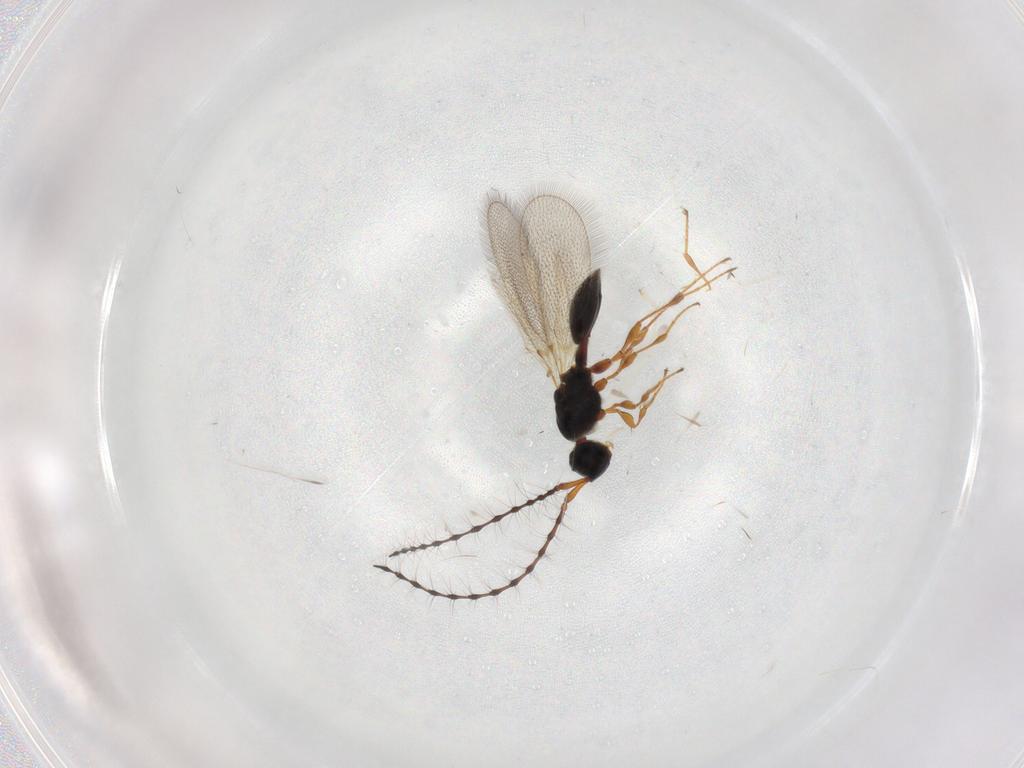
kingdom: Animalia
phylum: Arthropoda
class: Insecta
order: Hymenoptera
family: Diapriidae
